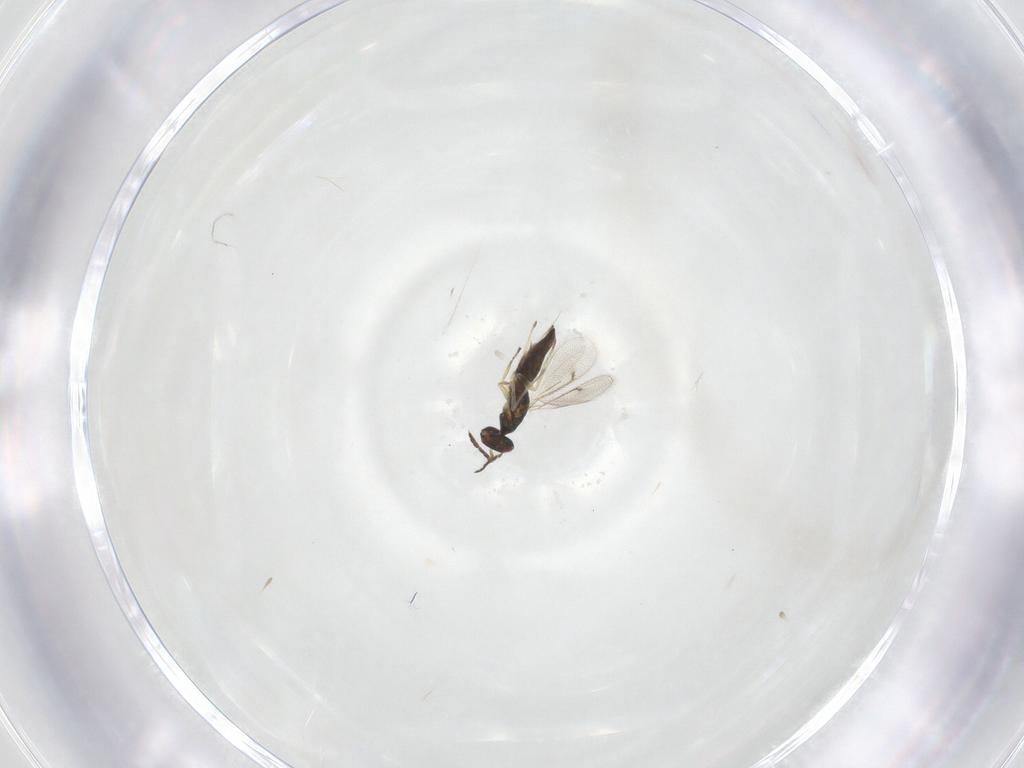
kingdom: Animalia
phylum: Arthropoda
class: Insecta
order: Hymenoptera
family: Eulophidae
